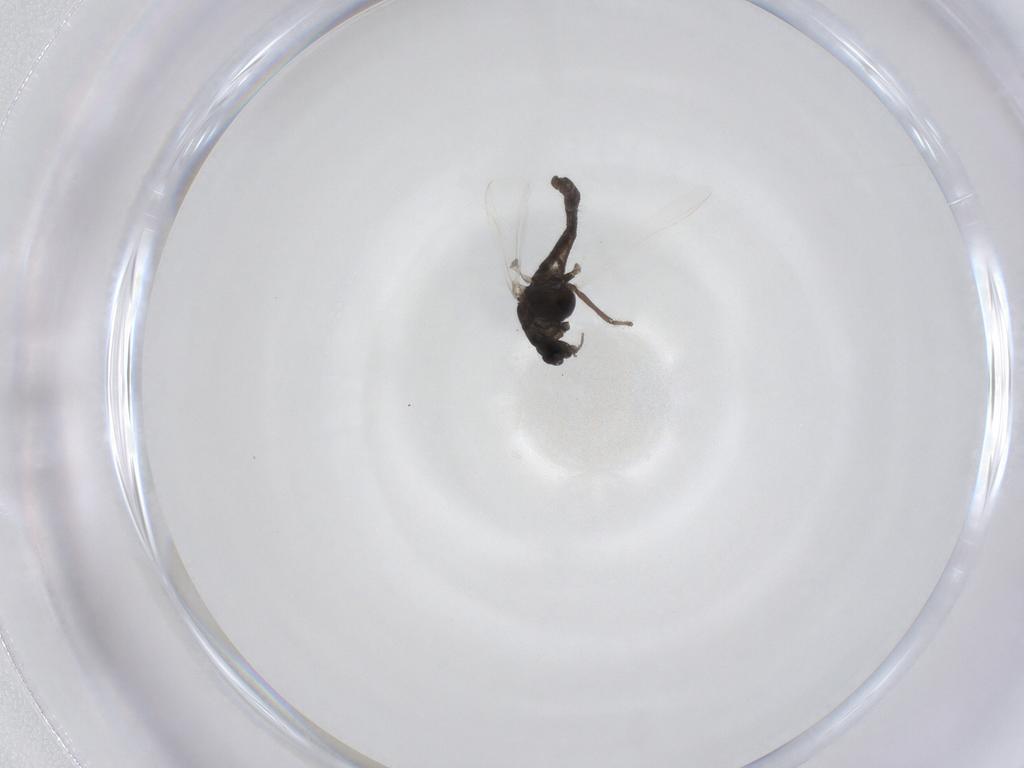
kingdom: Animalia
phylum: Arthropoda
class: Insecta
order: Diptera
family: Chironomidae
